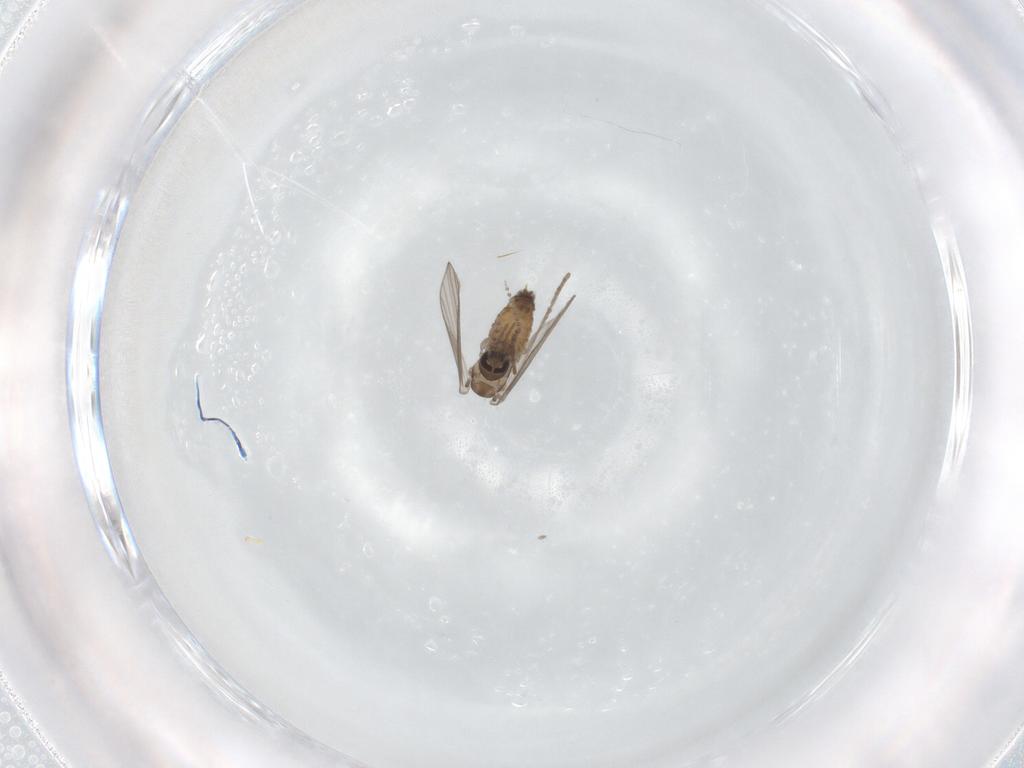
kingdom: Animalia
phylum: Arthropoda
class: Insecta
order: Diptera
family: Psychodidae
